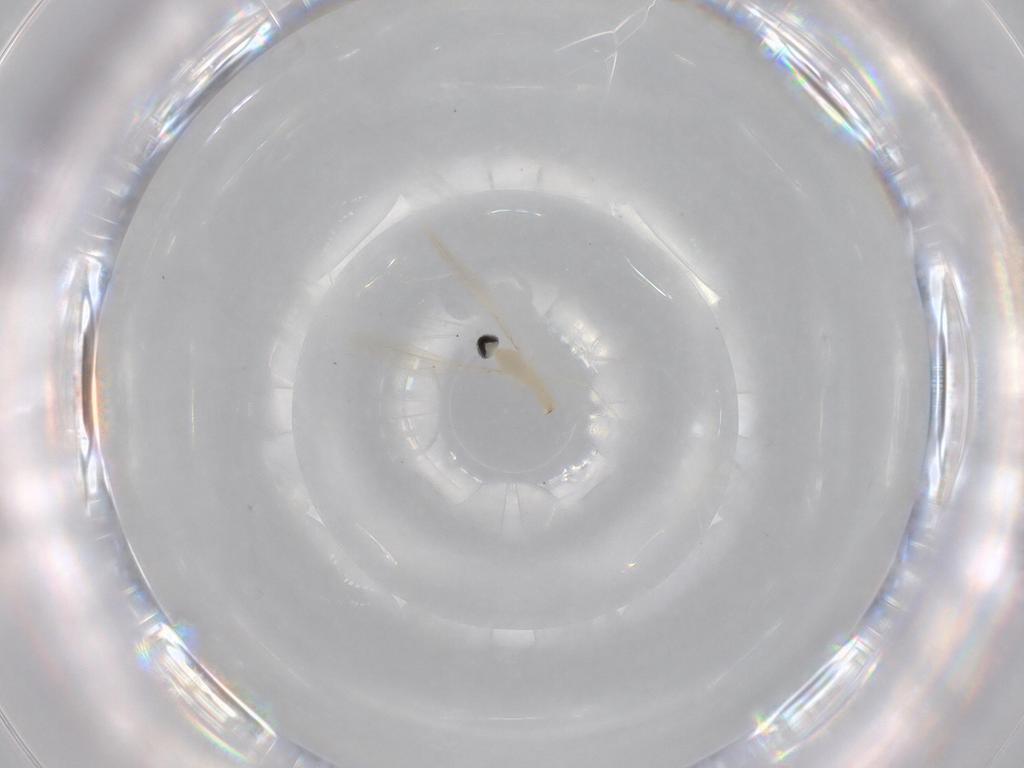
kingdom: Animalia
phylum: Arthropoda
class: Insecta
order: Diptera
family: Cecidomyiidae
